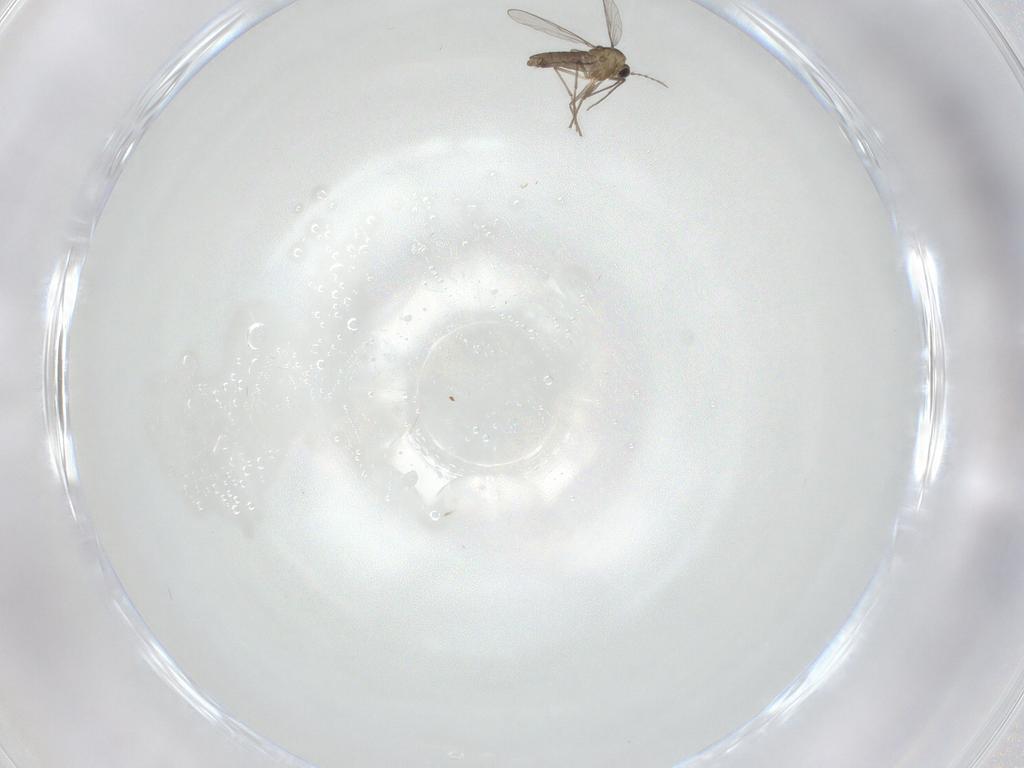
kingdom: Animalia
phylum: Arthropoda
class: Insecta
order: Diptera
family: Chironomidae
